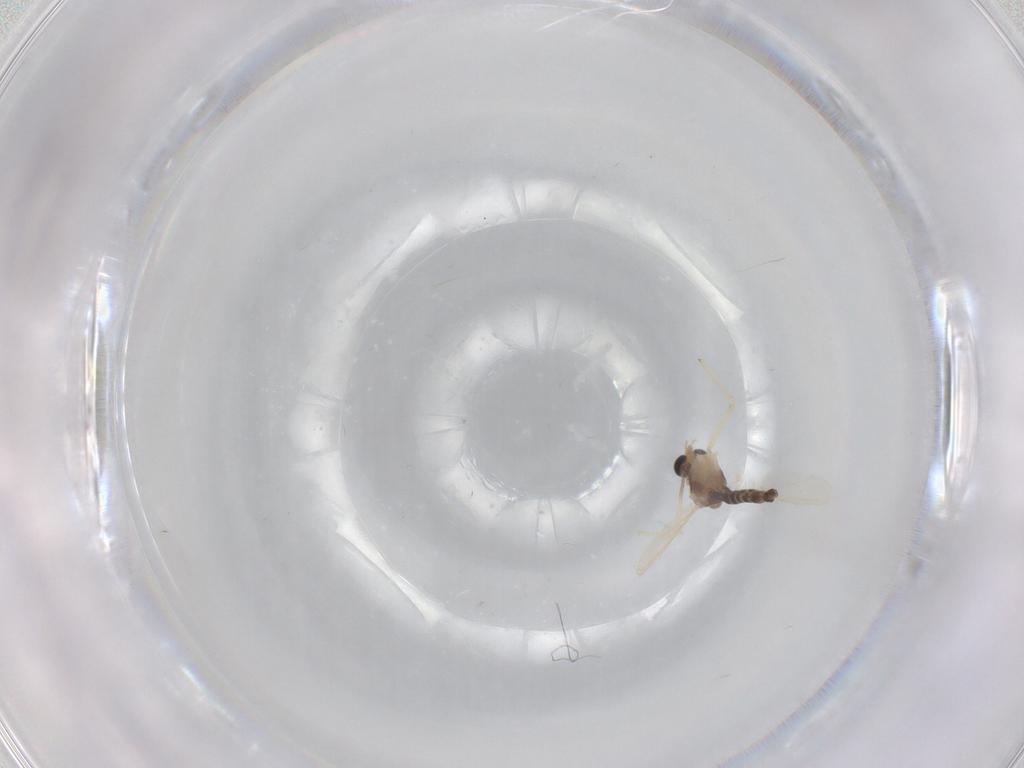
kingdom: Animalia
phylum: Arthropoda
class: Insecta
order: Diptera
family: Chironomidae
